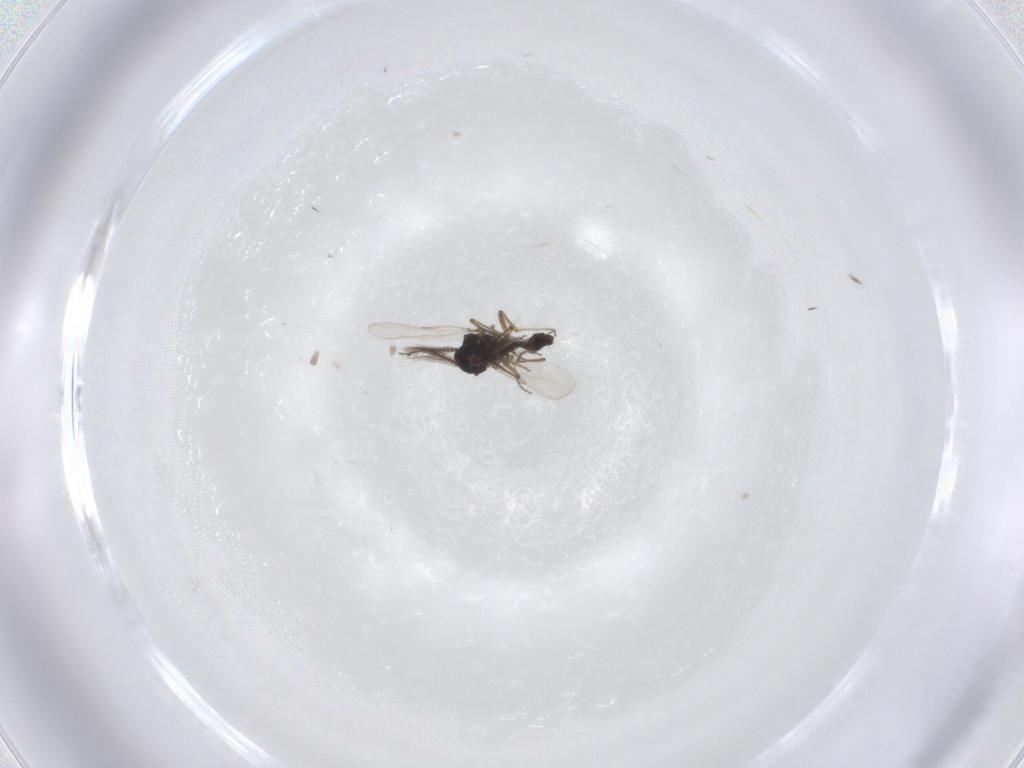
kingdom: Animalia
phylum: Arthropoda
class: Insecta
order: Diptera
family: Ceratopogonidae
